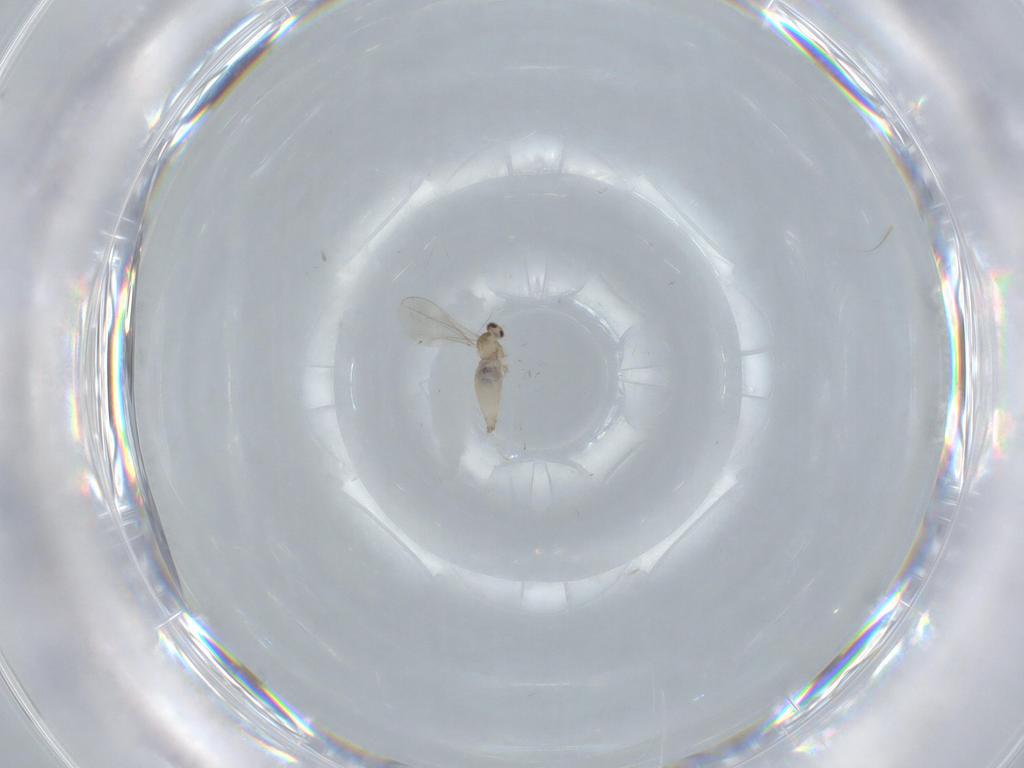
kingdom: Animalia
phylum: Arthropoda
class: Insecta
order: Diptera
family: Cecidomyiidae
